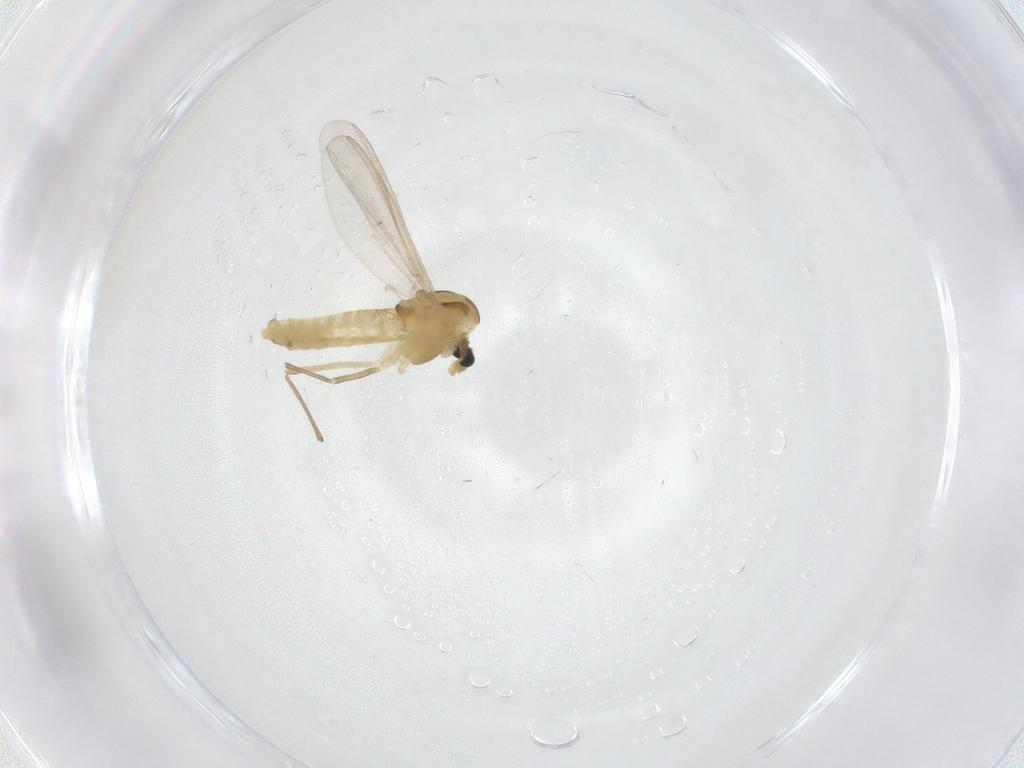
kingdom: Animalia
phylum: Arthropoda
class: Insecta
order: Diptera
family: Chironomidae
